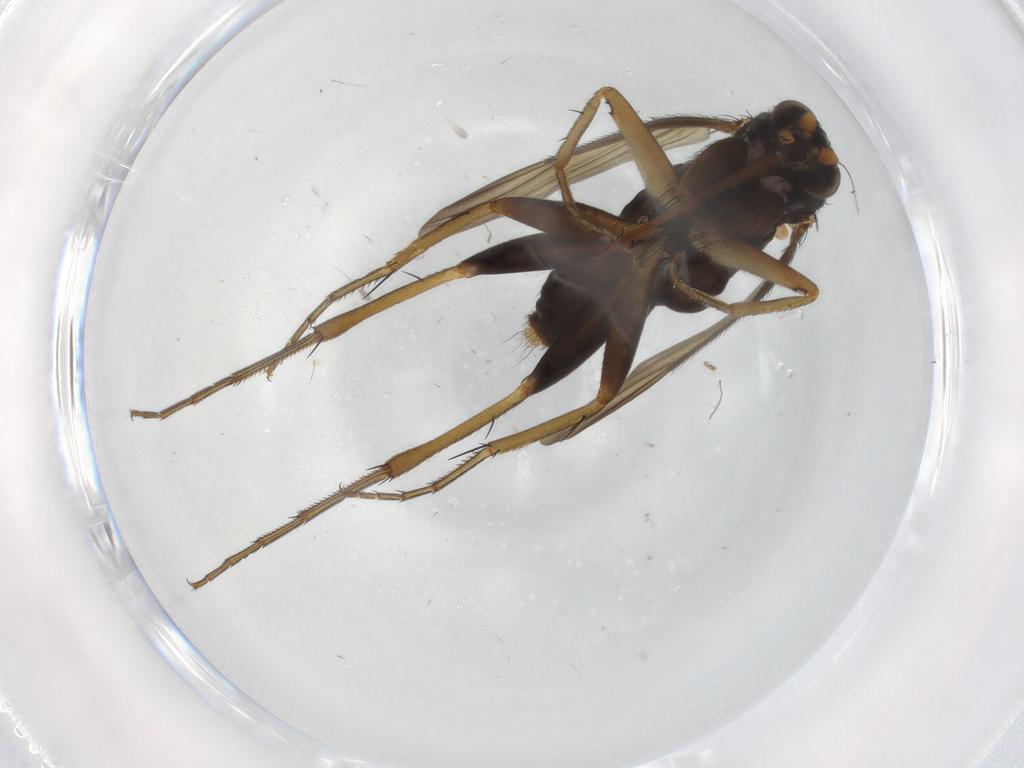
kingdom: Animalia
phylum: Arthropoda
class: Insecta
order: Diptera
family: Phoridae
